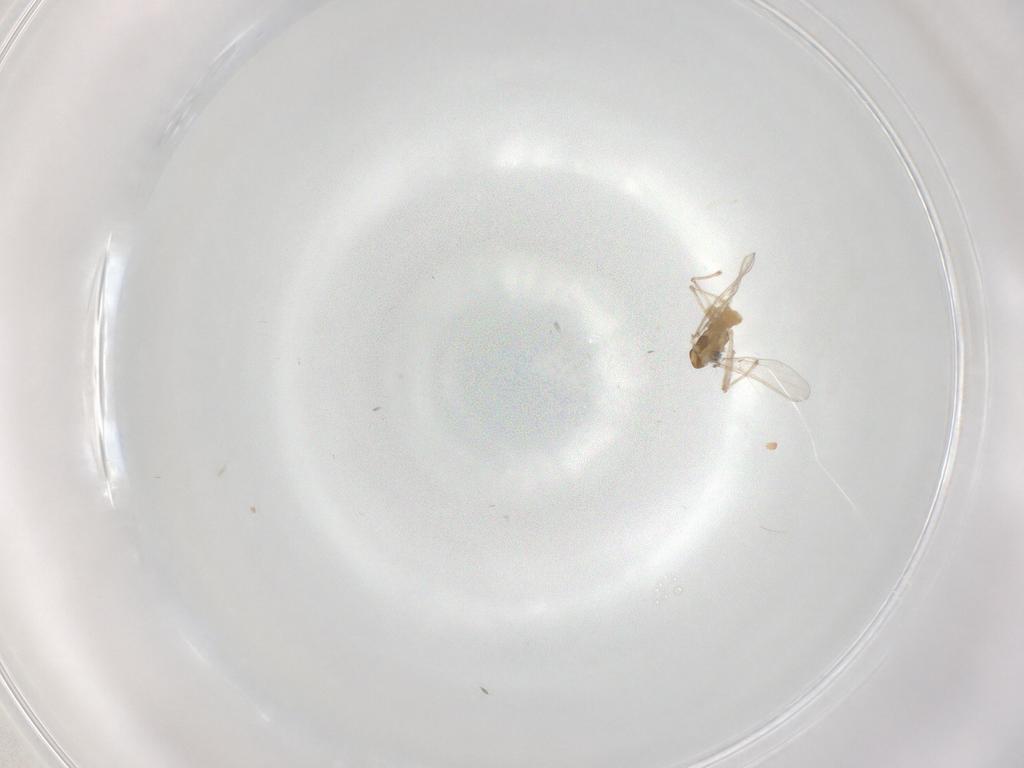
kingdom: Animalia
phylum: Arthropoda
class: Insecta
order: Diptera
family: Chironomidae
